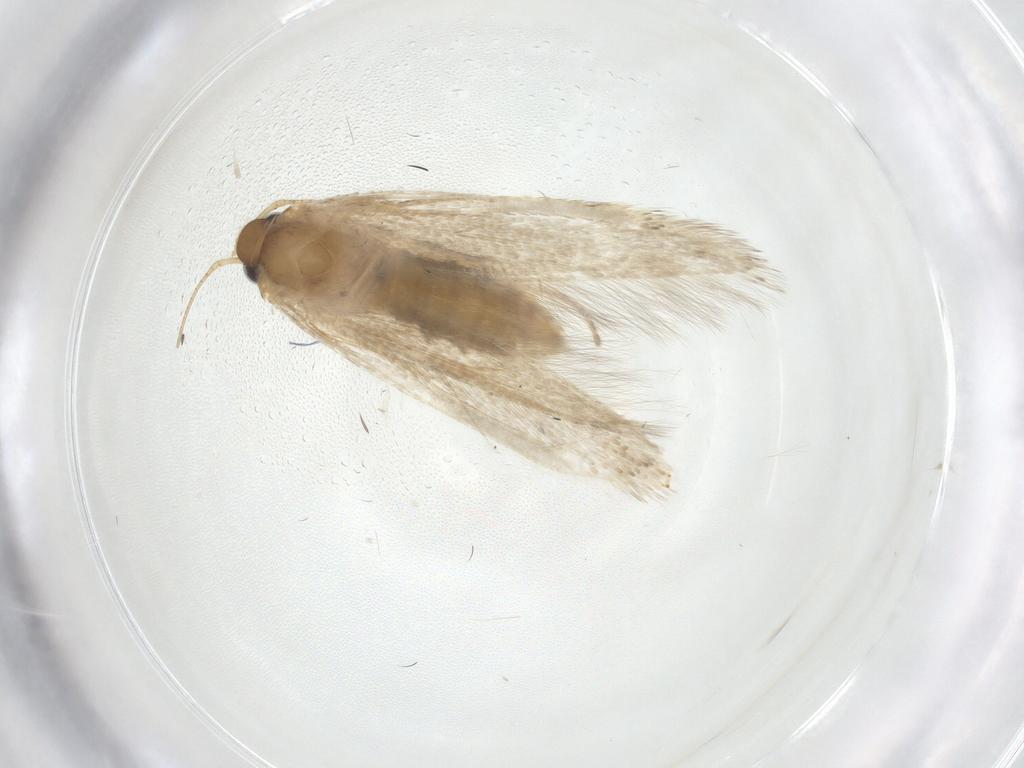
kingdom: Animalia
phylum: Arthropoda
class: Insecta
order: Lepidoptera
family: Blastobasidae
